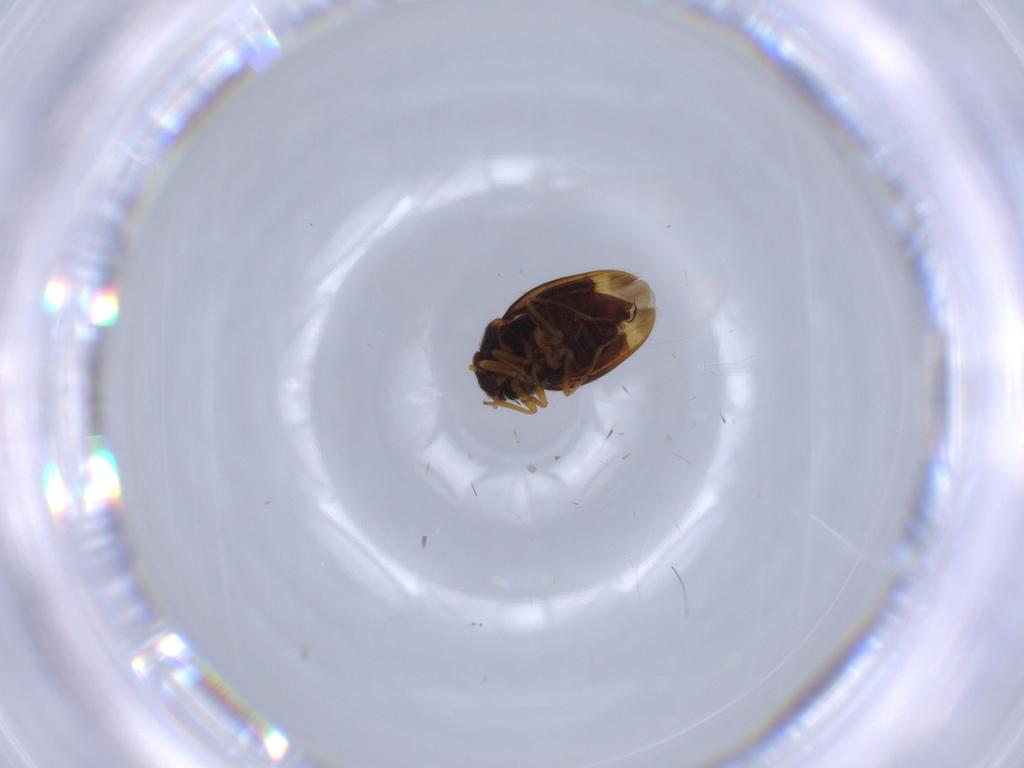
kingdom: Animalia
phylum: Arthropoda
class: Insecta
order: Hemiptera
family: Schizopteridae
